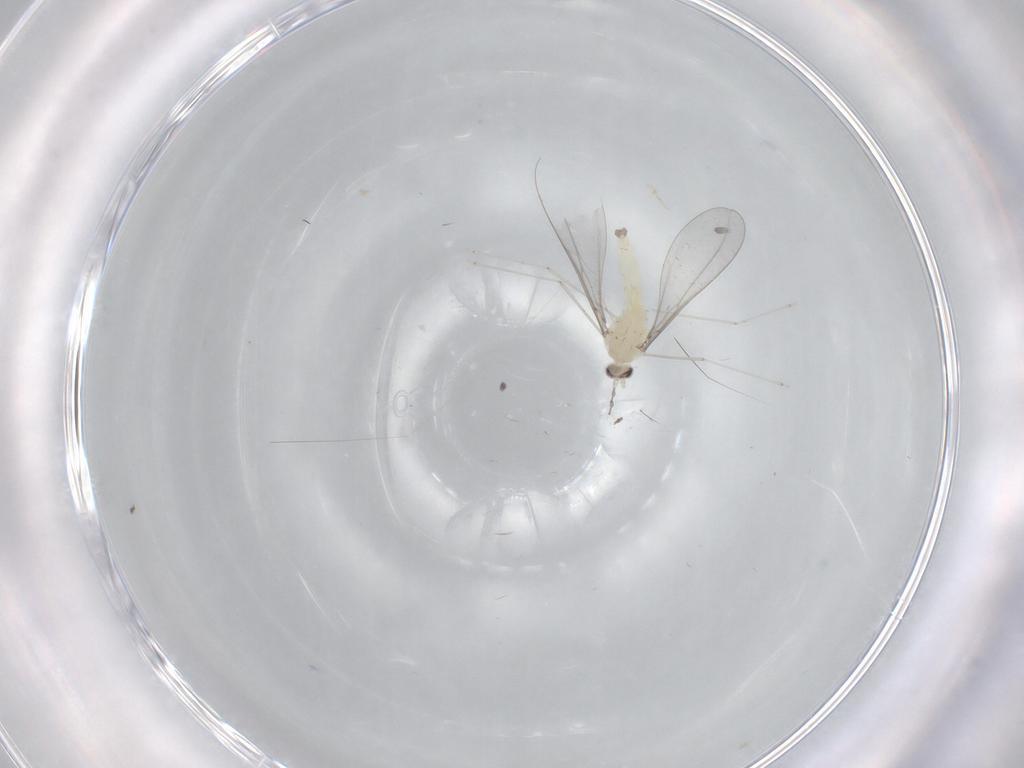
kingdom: Animalia
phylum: Arthropoda
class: Insecta
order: Diptera
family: Cecidomyiidae
